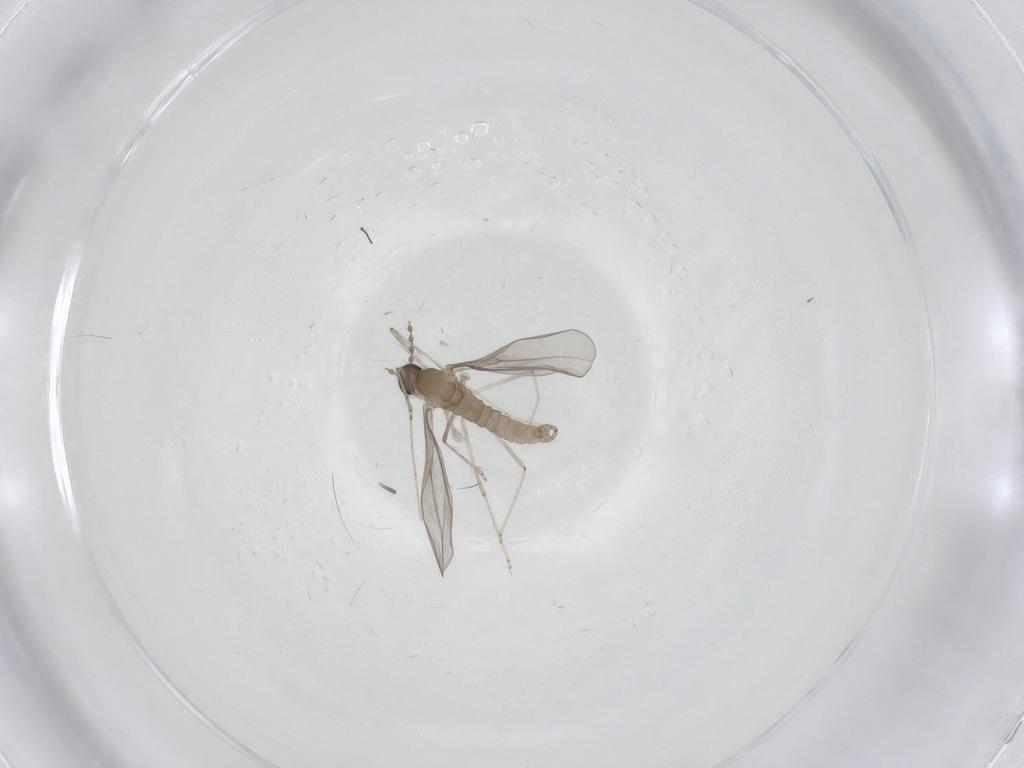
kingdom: Animalia
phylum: Arthropoda
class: Insecta
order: Diptera
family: Cecidomyiidae
